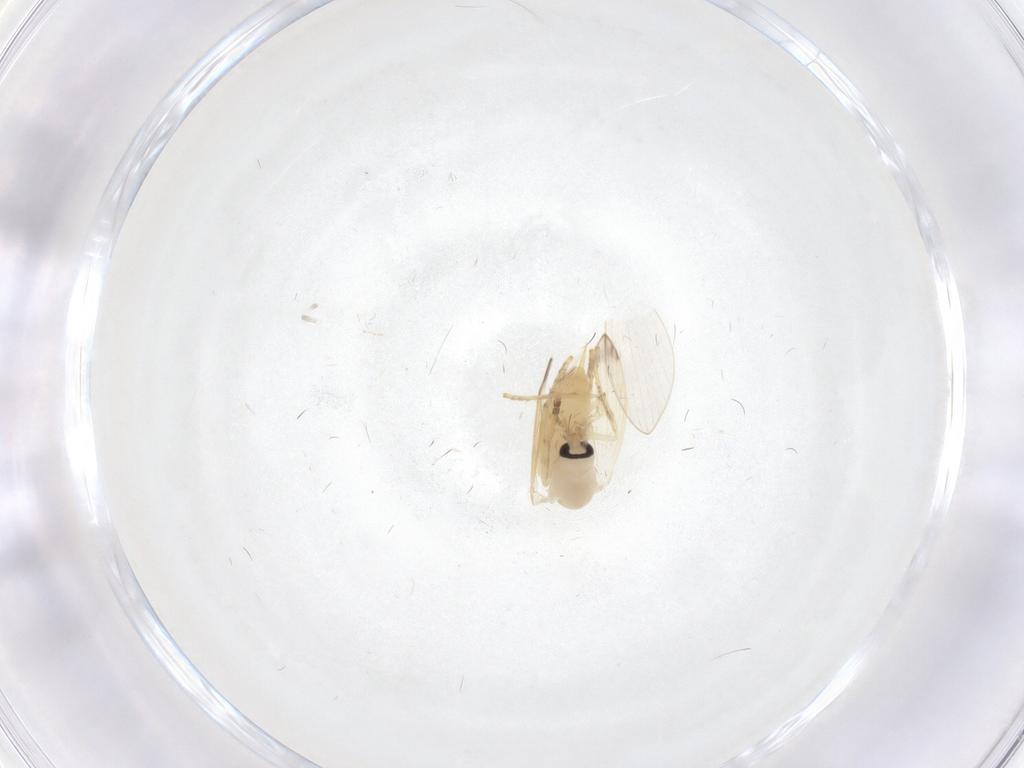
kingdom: Animalia
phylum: Arthropoda
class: Insecta
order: Diptera
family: Psychodidae
